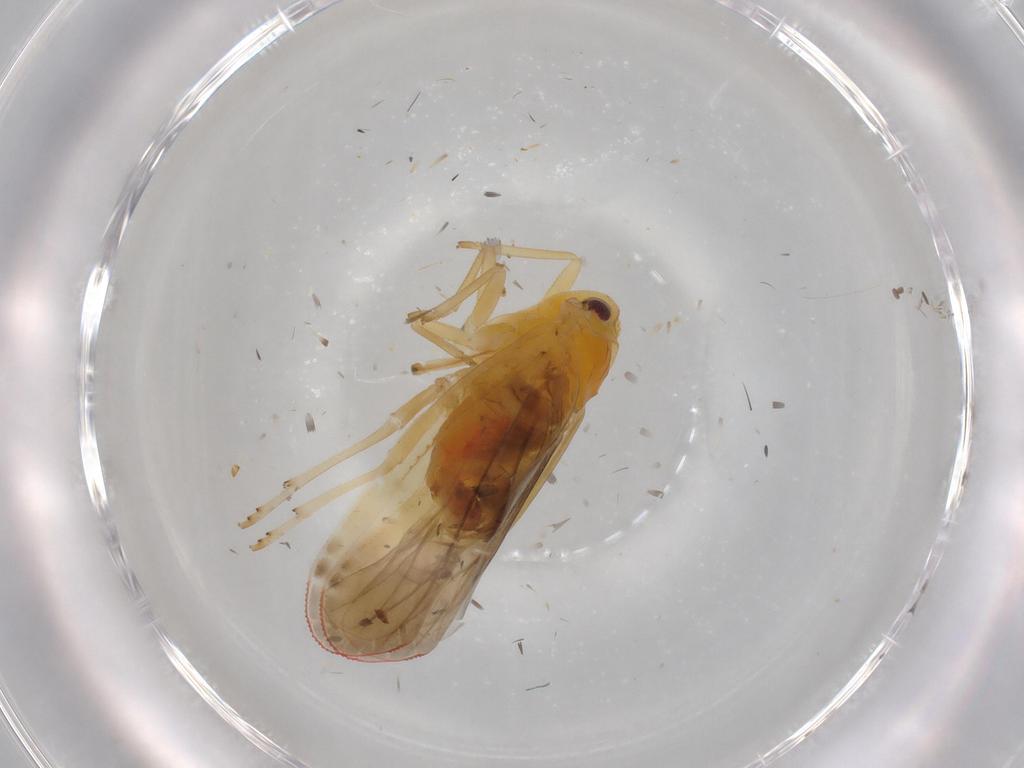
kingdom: Animalia
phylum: Arthropoda
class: Insecta
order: Hemiptera
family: Derbidae
